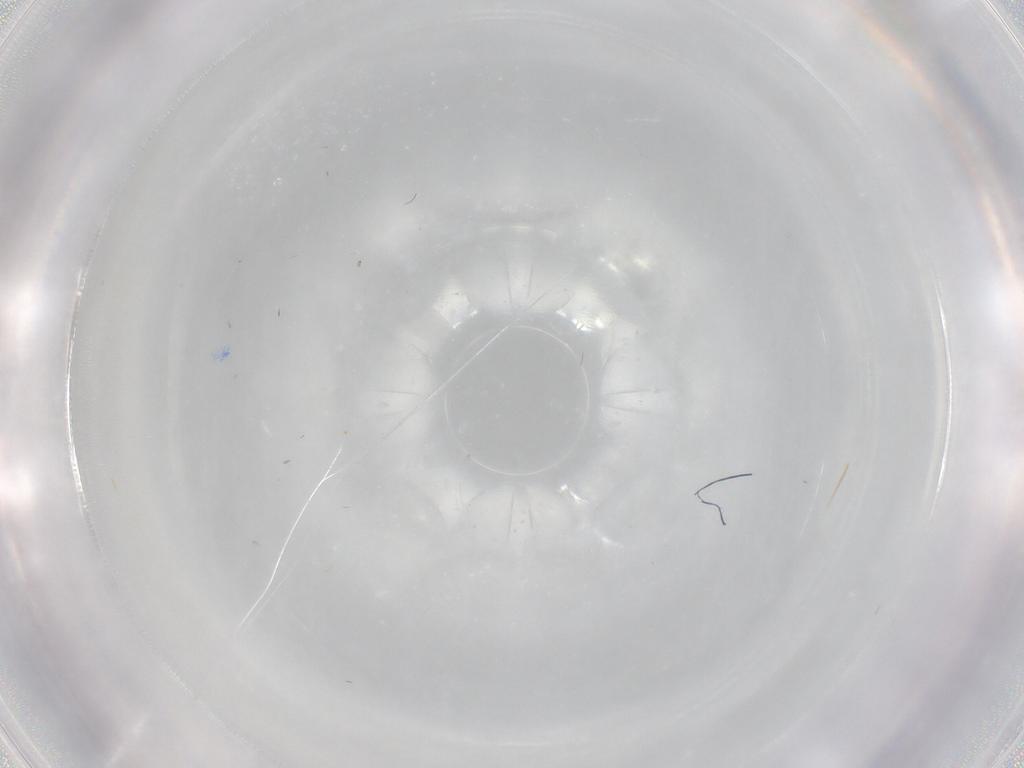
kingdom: Animalia
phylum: Arthropoda
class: Insecta
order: Diptera
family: Stratiomyidae
